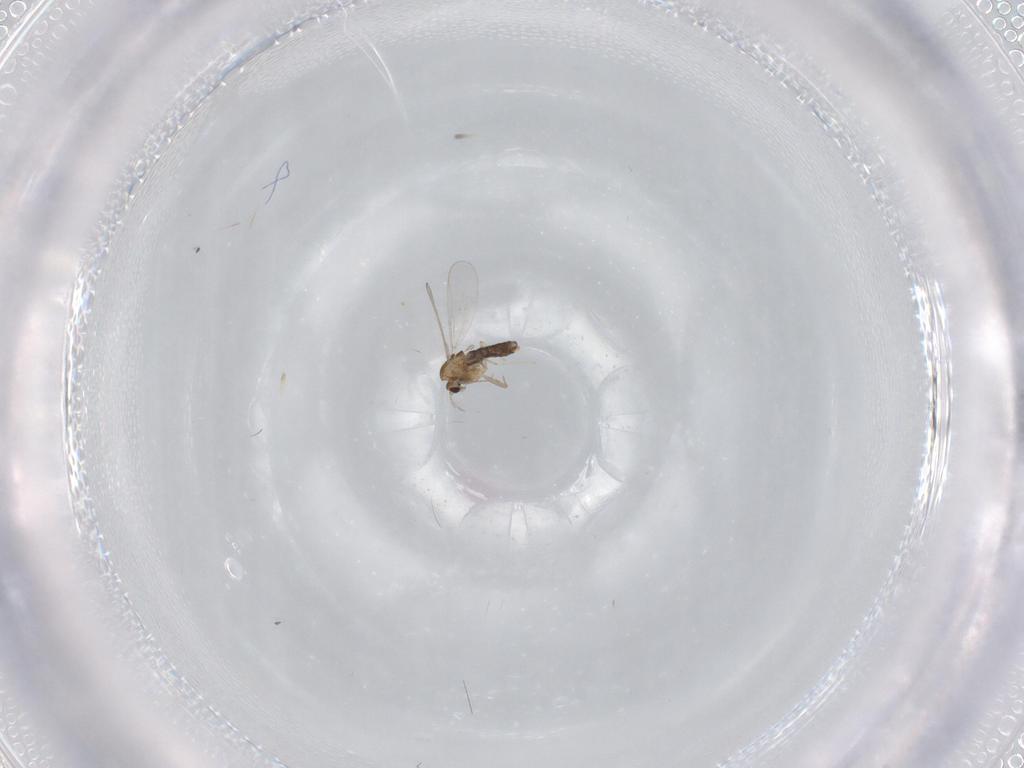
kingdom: Animalia
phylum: Arthropoda
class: Insecta
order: Diptera
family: Chironomidae
